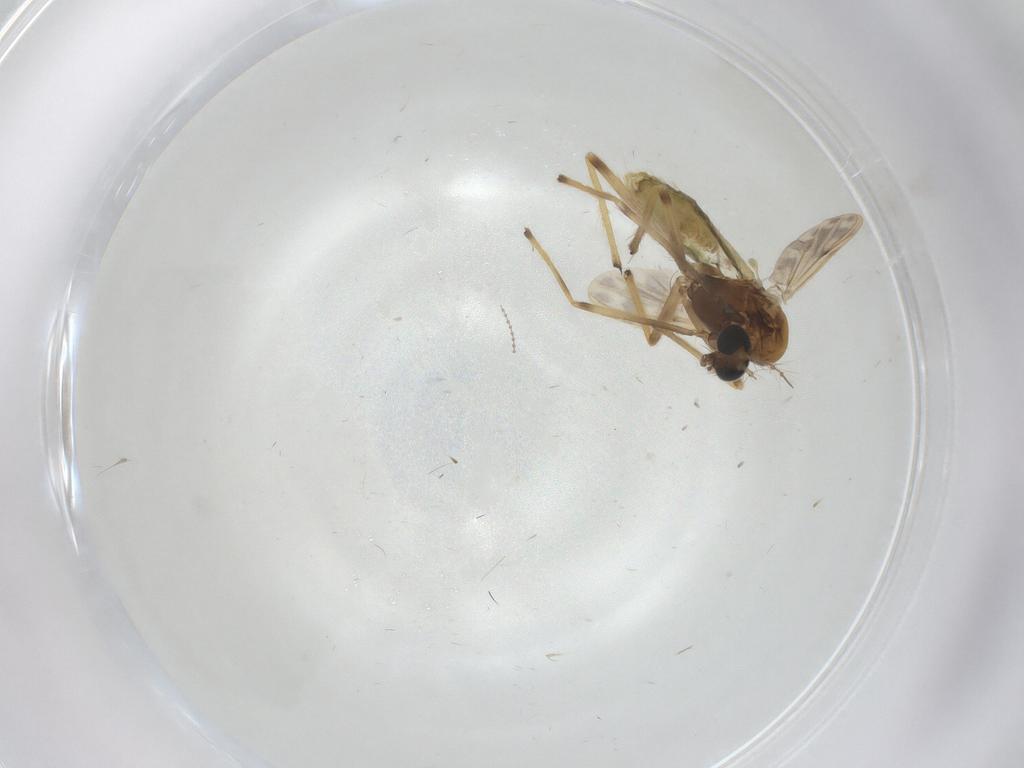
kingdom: Animalia
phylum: Arthropoda
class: Insecta
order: Diptera
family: Chironomidae
